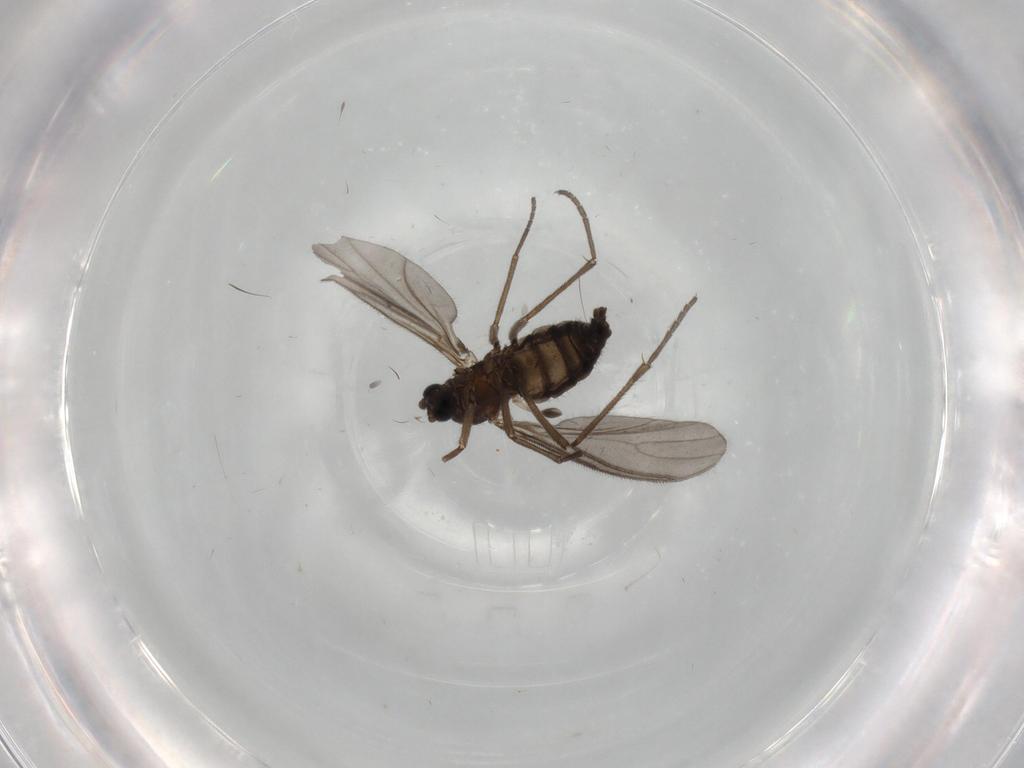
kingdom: Animalia
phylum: Arthropoda
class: Insecta
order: Diptera
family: Sciaridae
